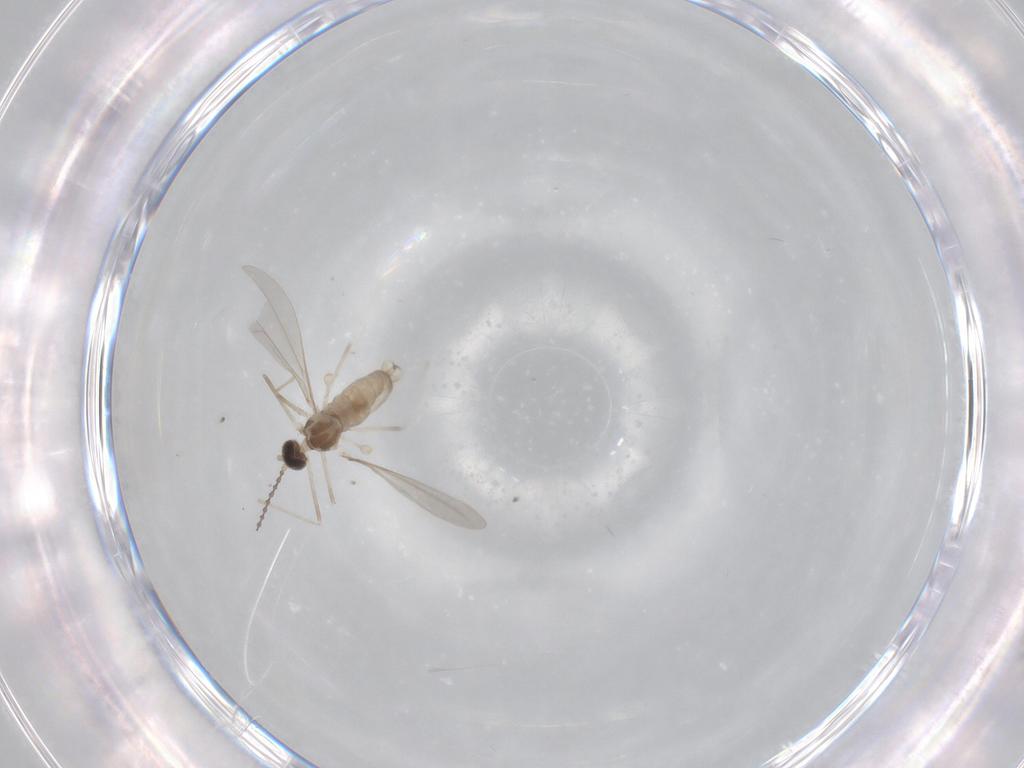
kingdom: Animalia
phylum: Arthropoda
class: Insecta
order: Diptera
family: Cecidomyiidae
